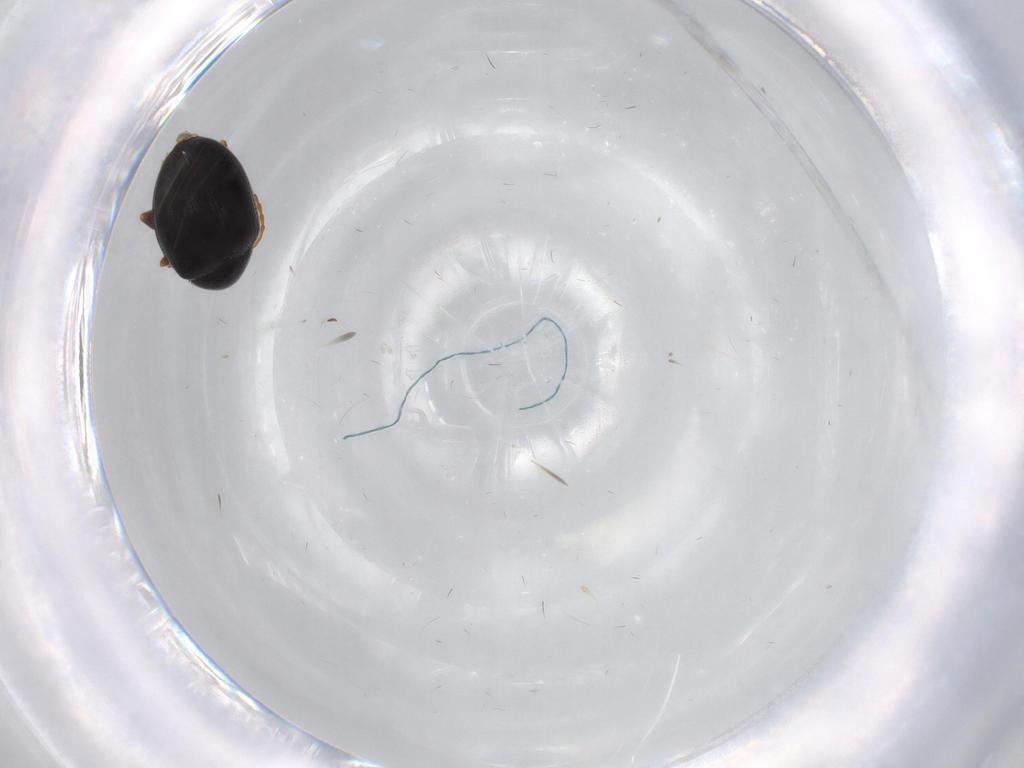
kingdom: Animalia
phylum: Arthropoda
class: Insecta
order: Coleoptera
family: Chrysomelidae
